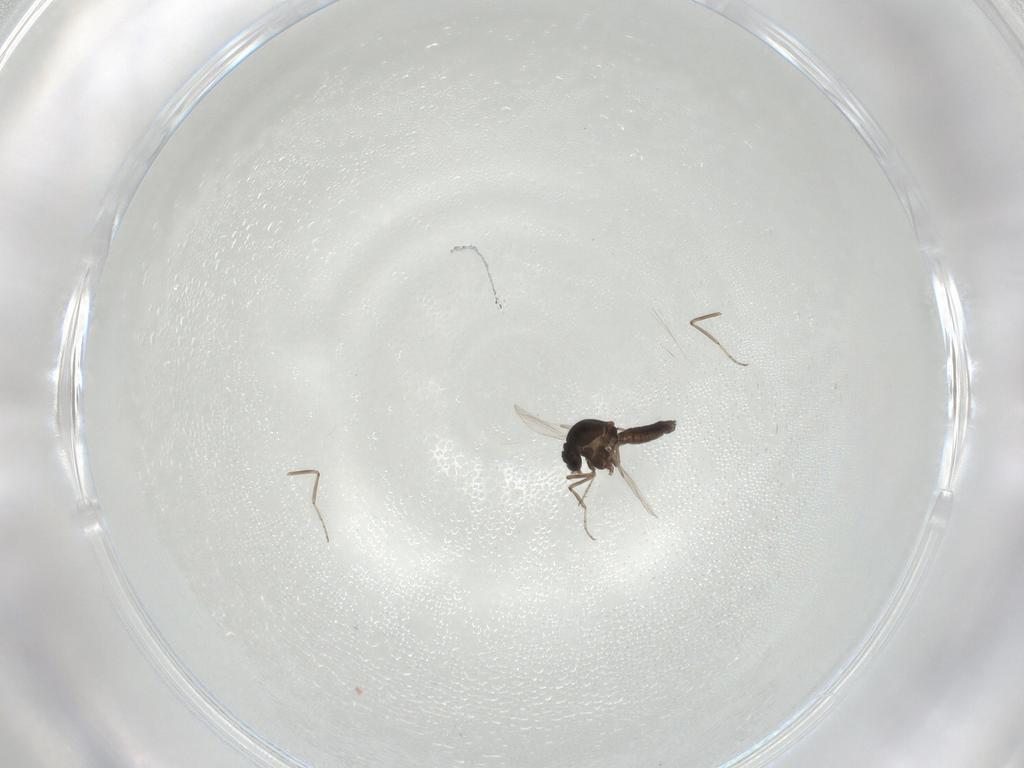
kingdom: Animalia
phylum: Arthropoda
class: Insecta
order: Diptera
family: Ceratopogonidae
